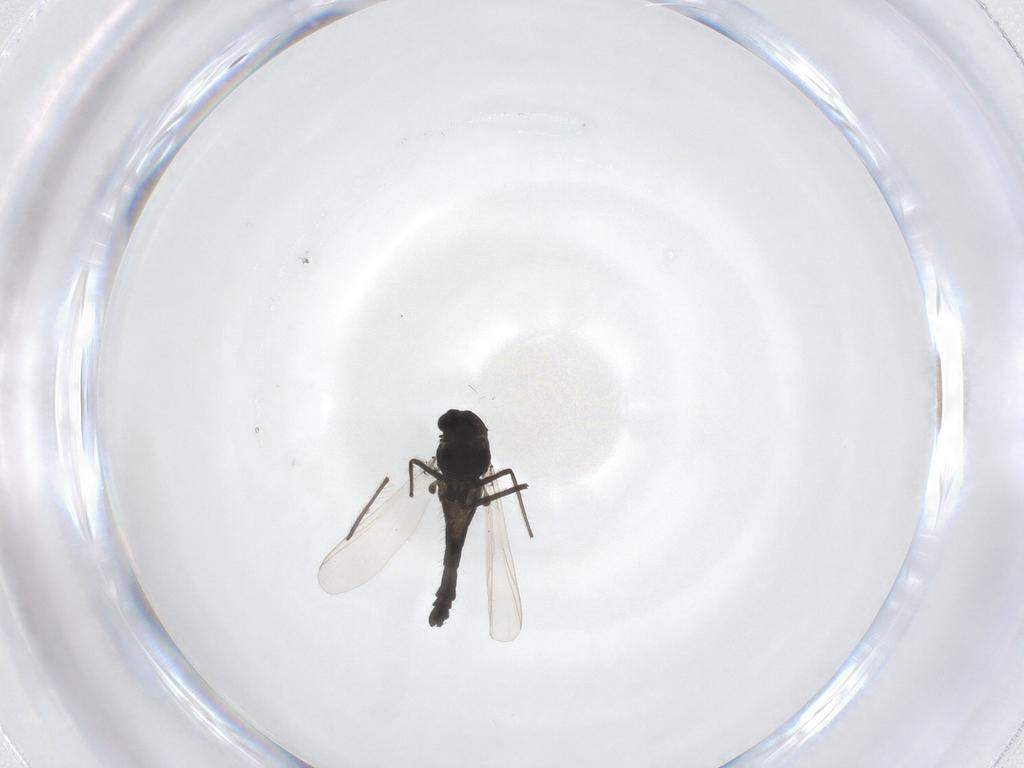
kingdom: Animalia
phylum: Arthropoda
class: Insecta
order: Diptera
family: Chironomidae
